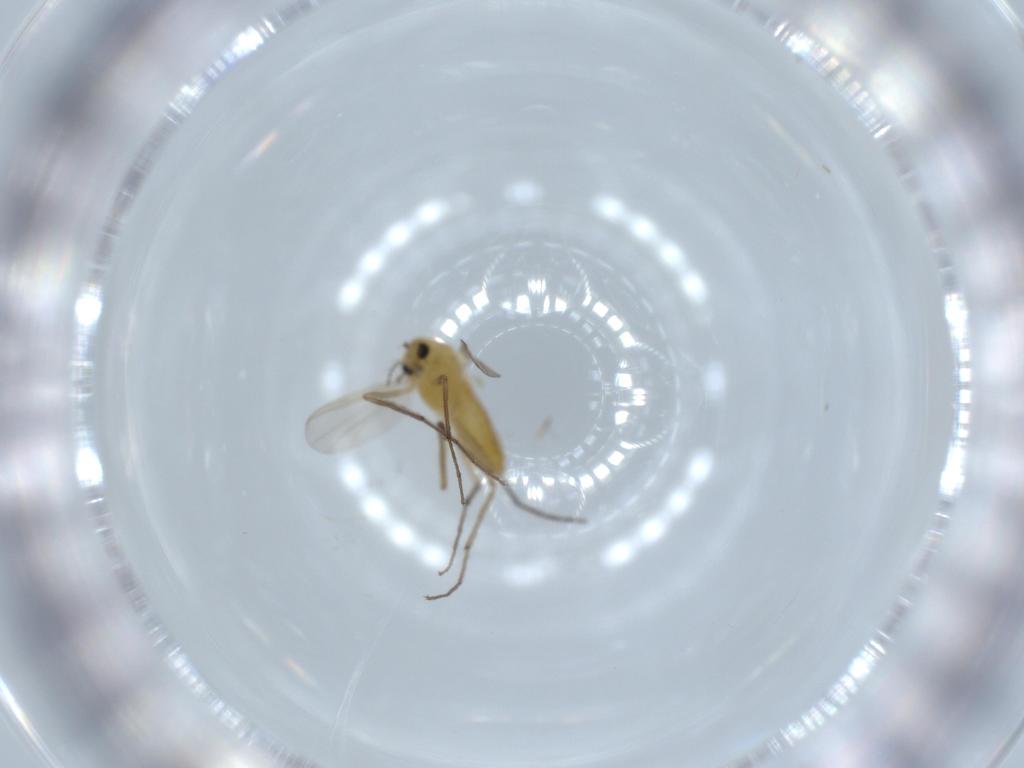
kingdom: Animalia
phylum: Arthropoda
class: Insecta
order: Diptera
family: Chironomidae
